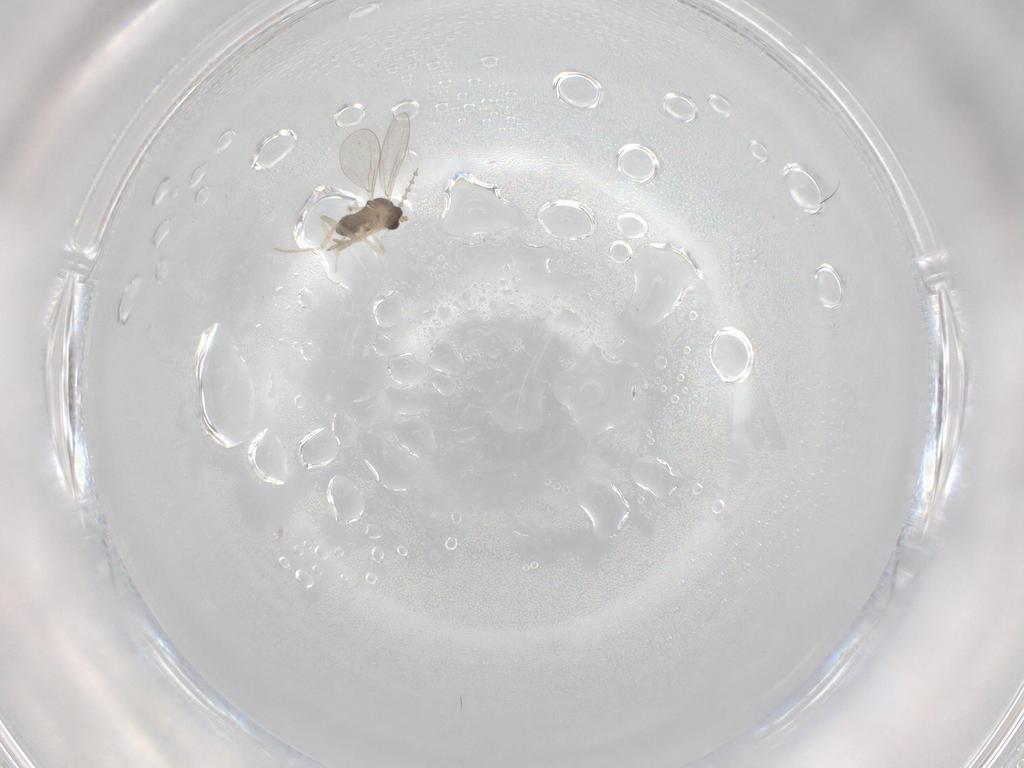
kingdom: Animalia
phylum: Arthropoda
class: Insecta
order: Diptera
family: Cecidomyiidae
